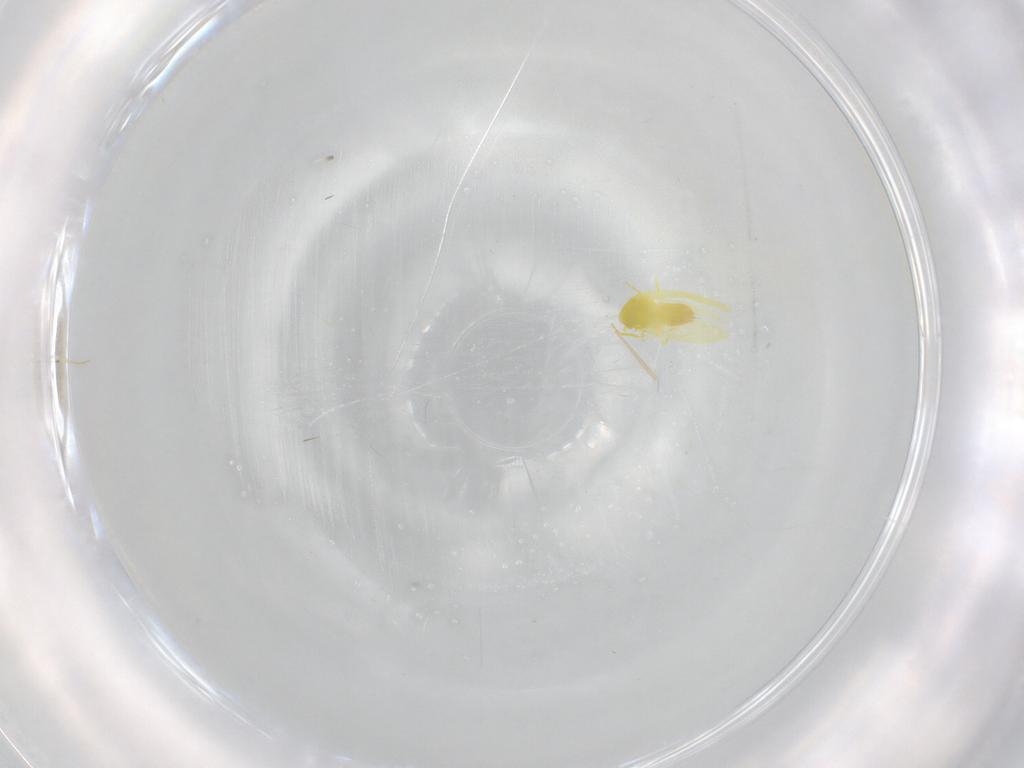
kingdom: Animalia
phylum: Arthropoda
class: Insecta
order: Hemiptera
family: Aleyrodidae
